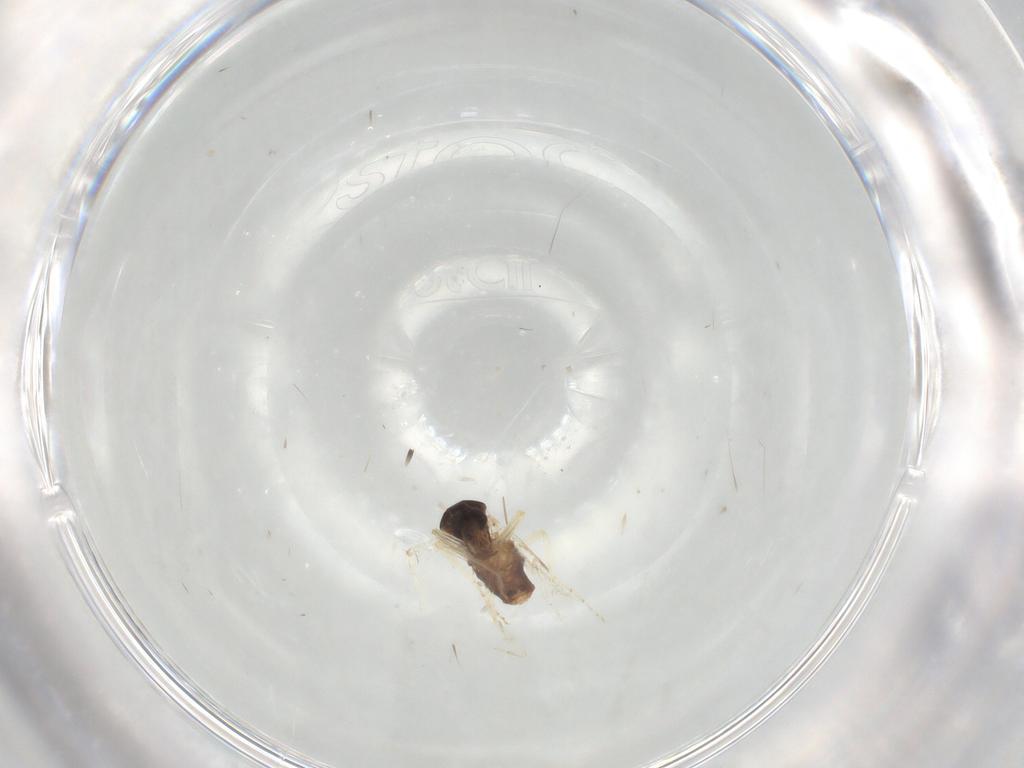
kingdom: Animalia
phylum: Arthropoda
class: Insecta
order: Diptera
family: Ceratopogonidae
